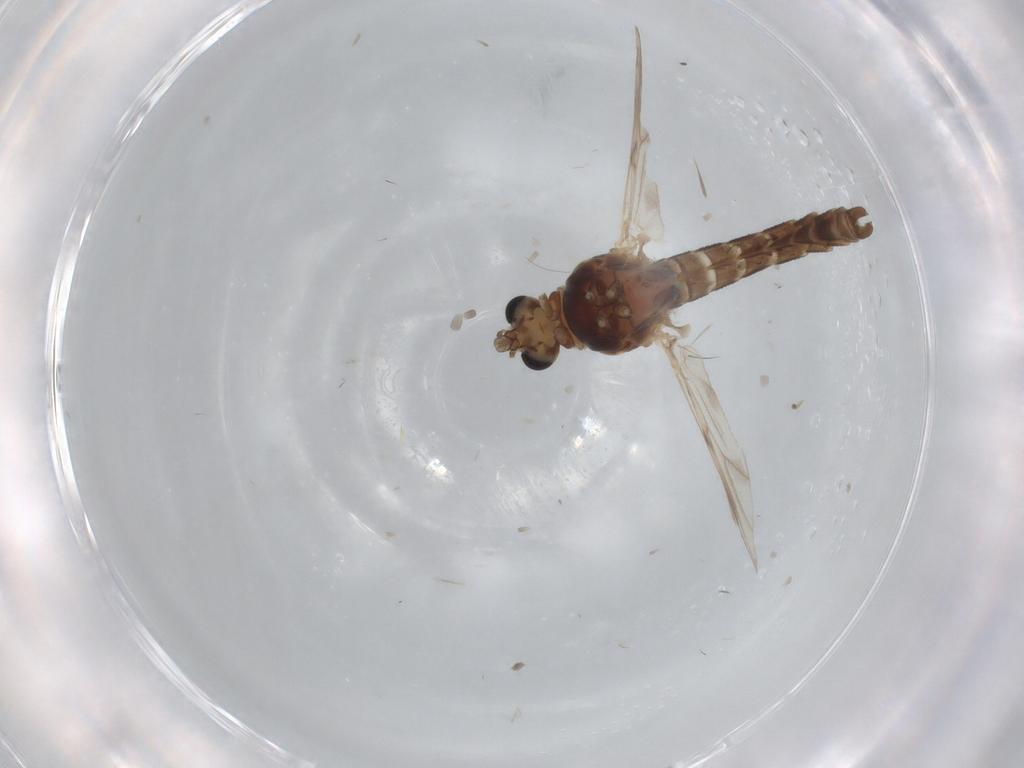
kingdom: Animalia
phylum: Arthropoda
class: Insecta
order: Diptera
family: Chironomidae
